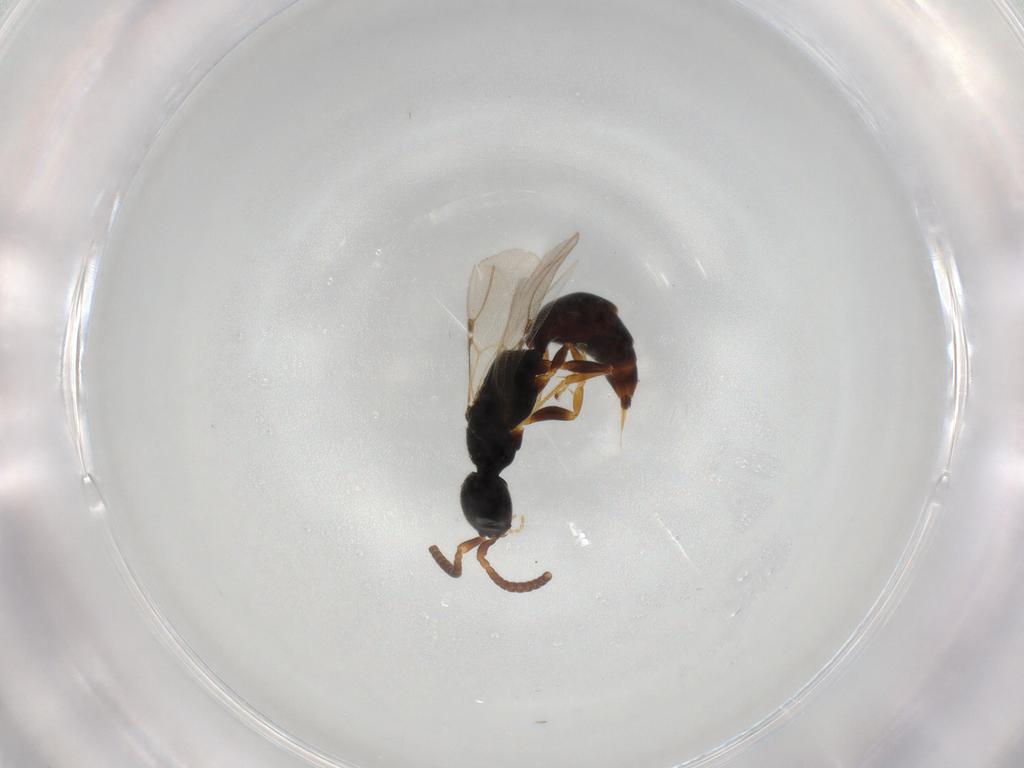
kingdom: Animalia
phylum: Arthropoda
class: Insecta
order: Hymenoptera
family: Bethylidae
